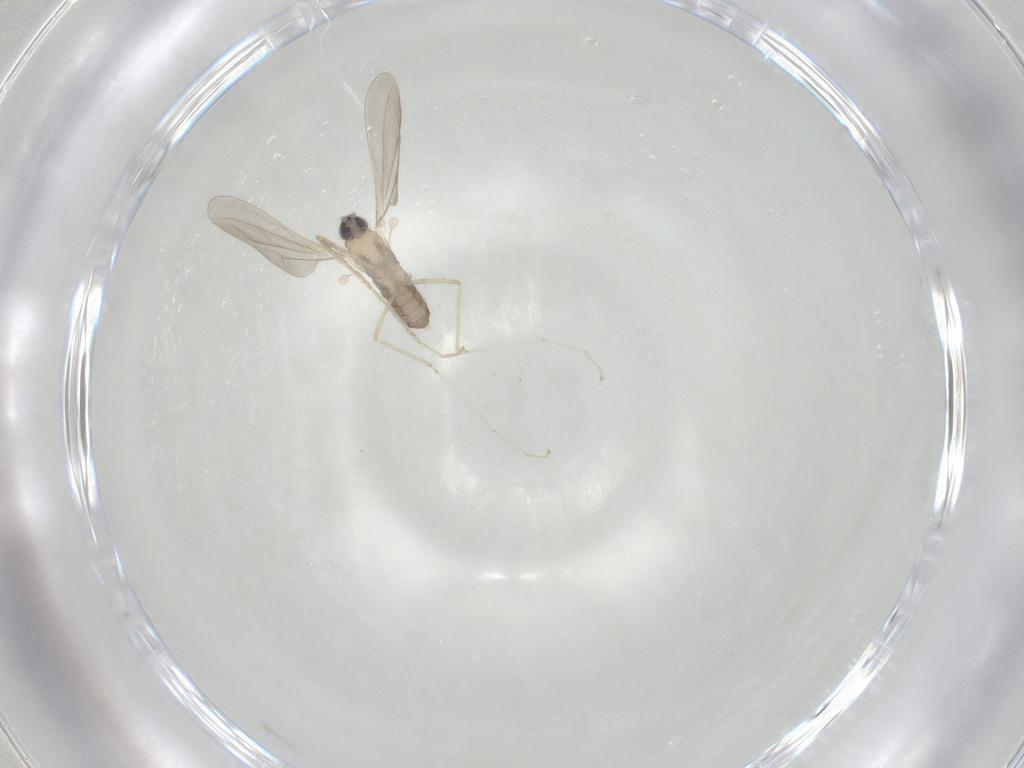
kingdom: Animalia
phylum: Arthropoda
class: Insecta
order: Diptera
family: Cecidomyiidae
